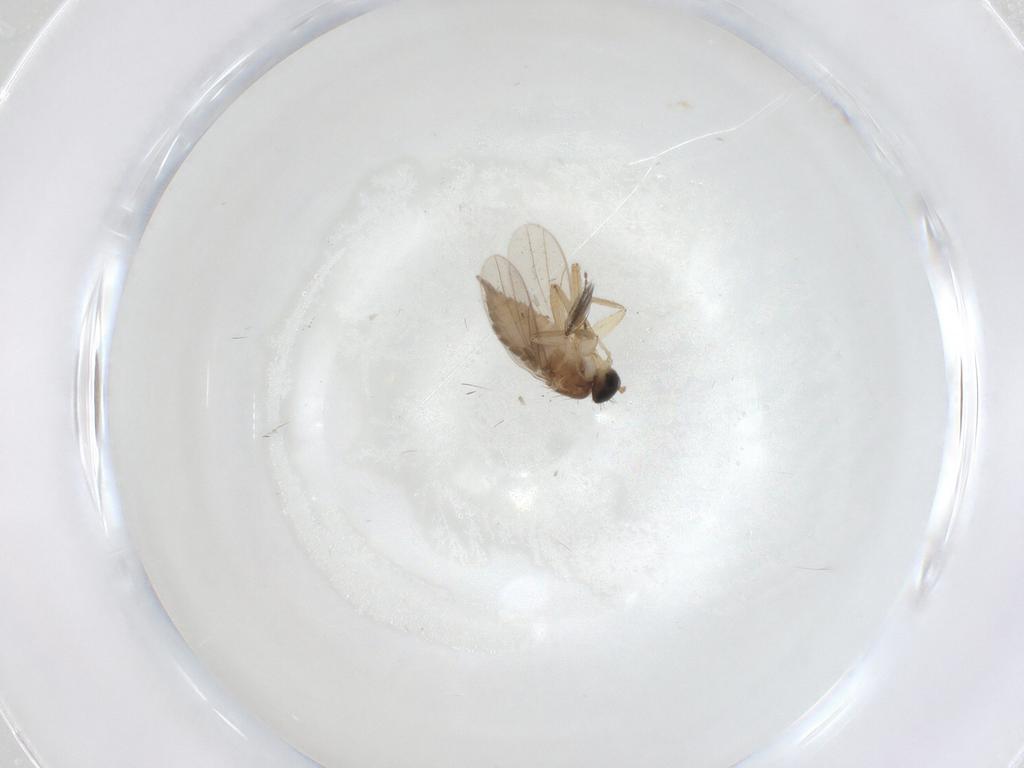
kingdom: Animalia
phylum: Arthropoda
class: Insecta
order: Diptera
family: Hybotidae
